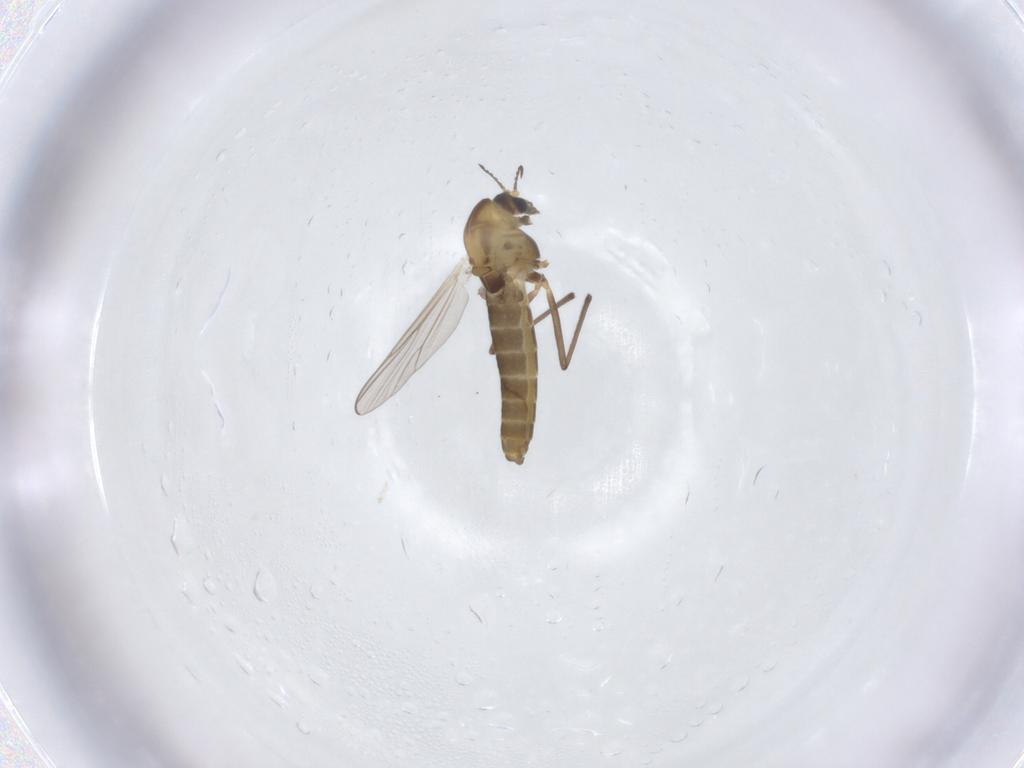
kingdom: Animalia
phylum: Arthropoda
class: Insecta
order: Diptera
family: Chironomidae
